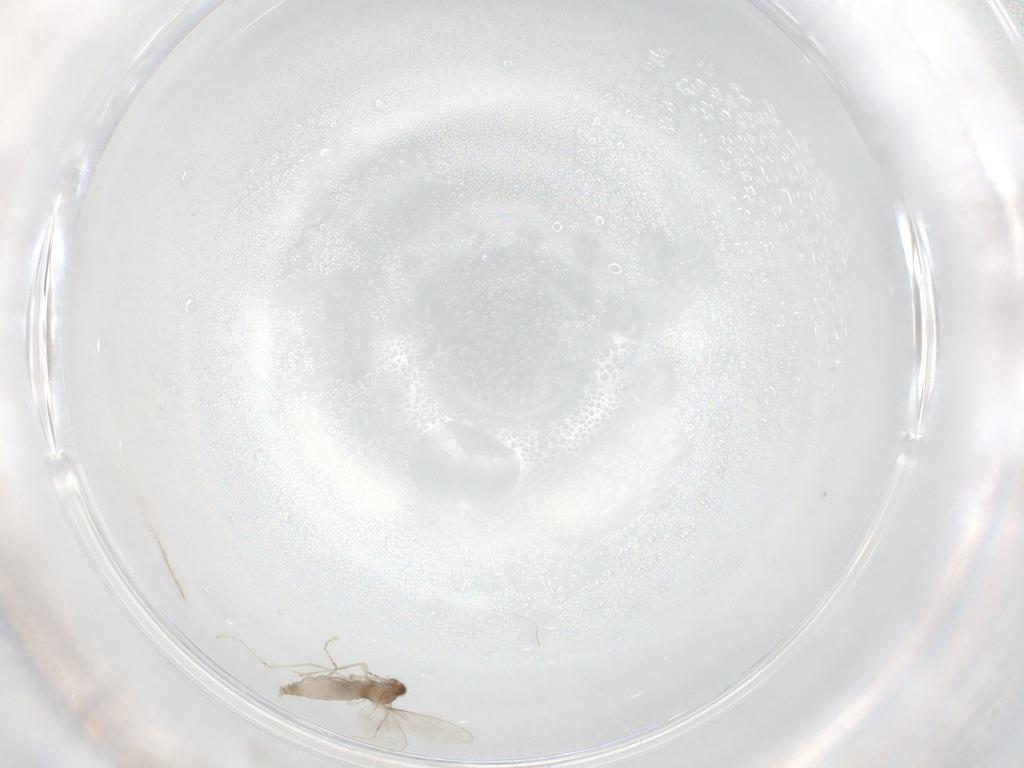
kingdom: Animalia
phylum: Arthropoda
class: Insecta
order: Diptera
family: Cecidomyiidae
